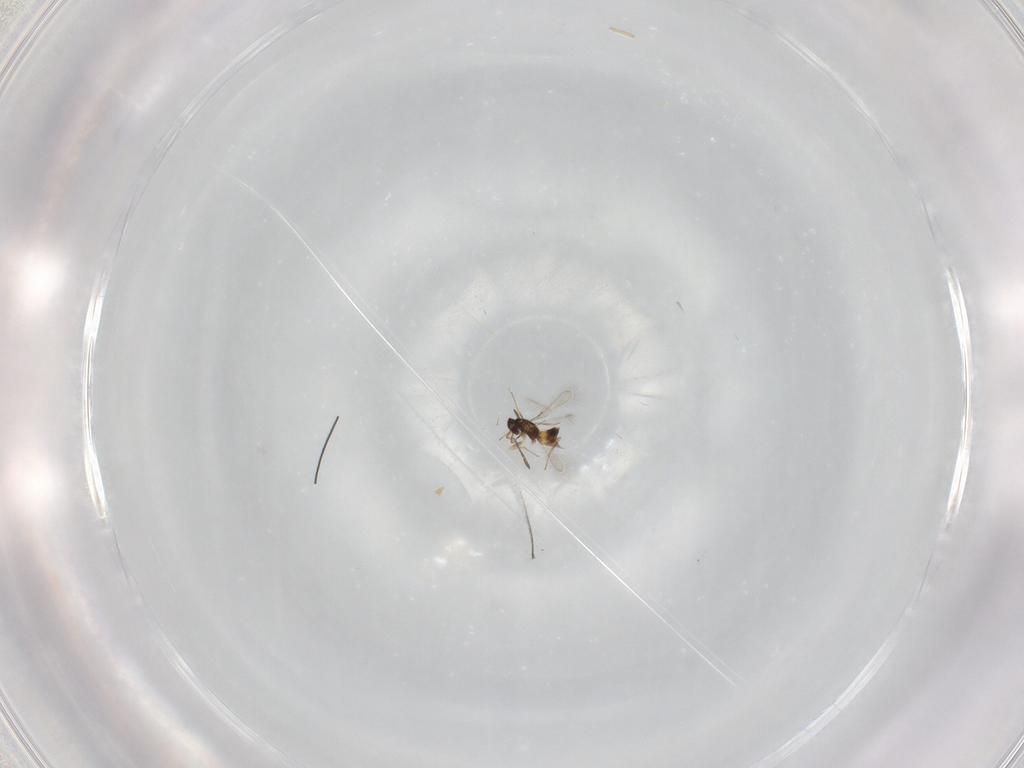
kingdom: Animalia
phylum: Arthropoda
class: Insecta
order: Hymenoptera
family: Mymaridae
